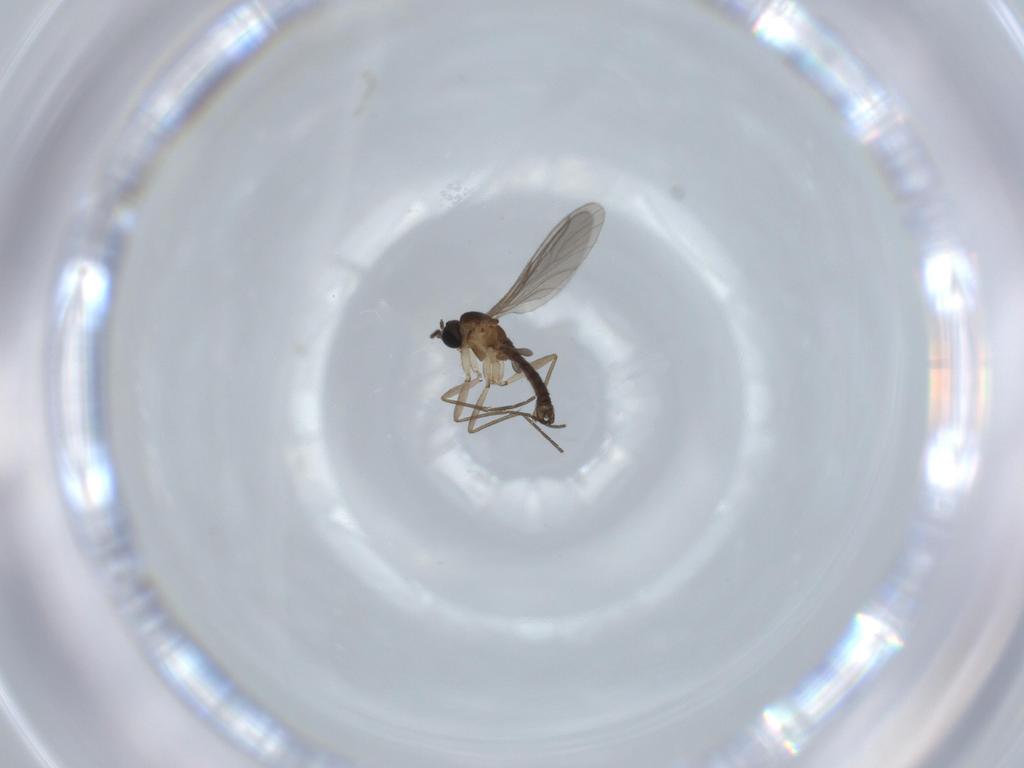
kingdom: Animalia
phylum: Arthropoda
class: Insecta
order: Diptera
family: Sciaridae
